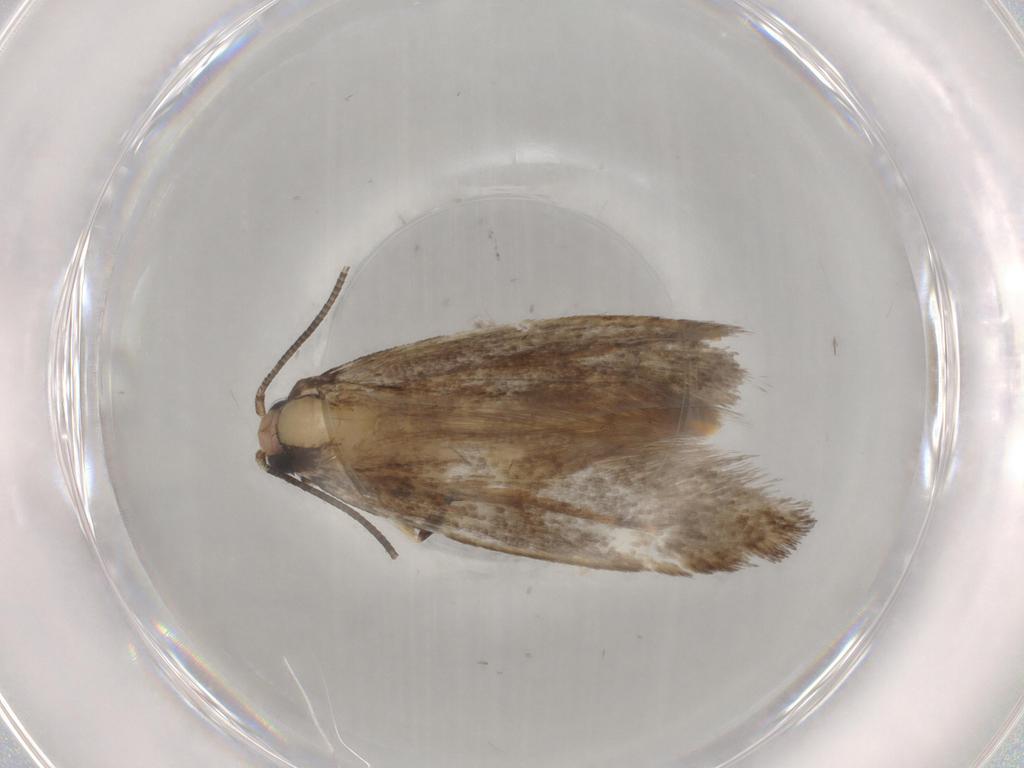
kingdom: Animalia
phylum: Arthropoda
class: Insecta
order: Lepidoptera
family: Tineidae
